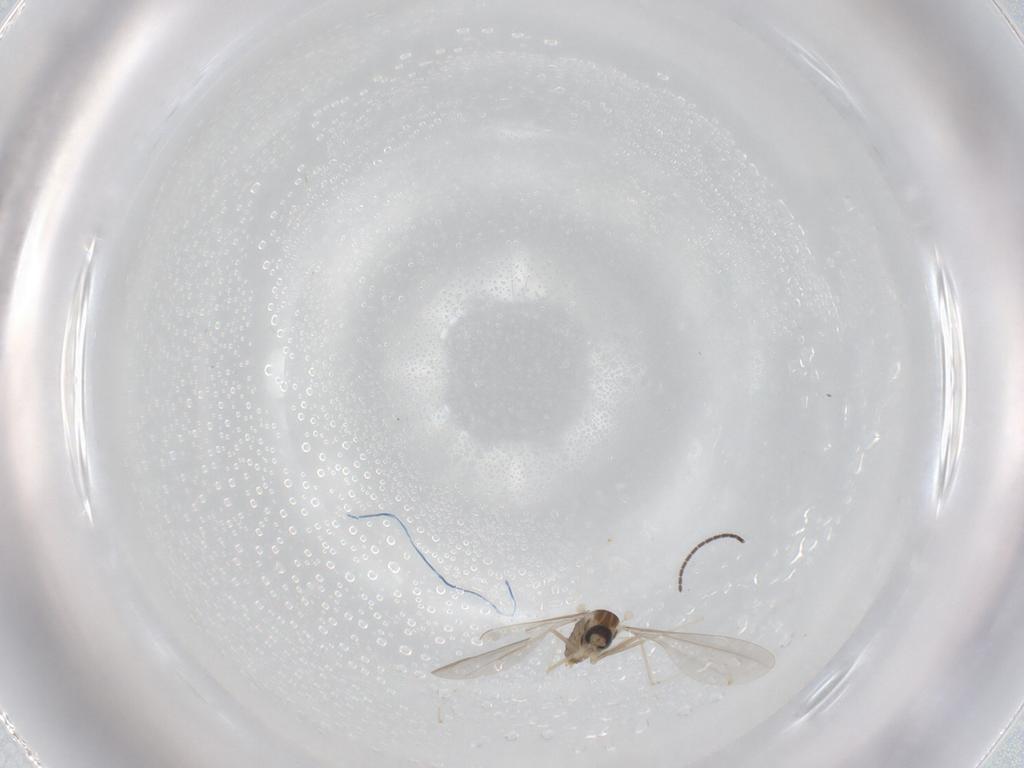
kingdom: Animalia
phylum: Arthropoda
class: Insecta
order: Diptera
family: Cecidomyiidae
